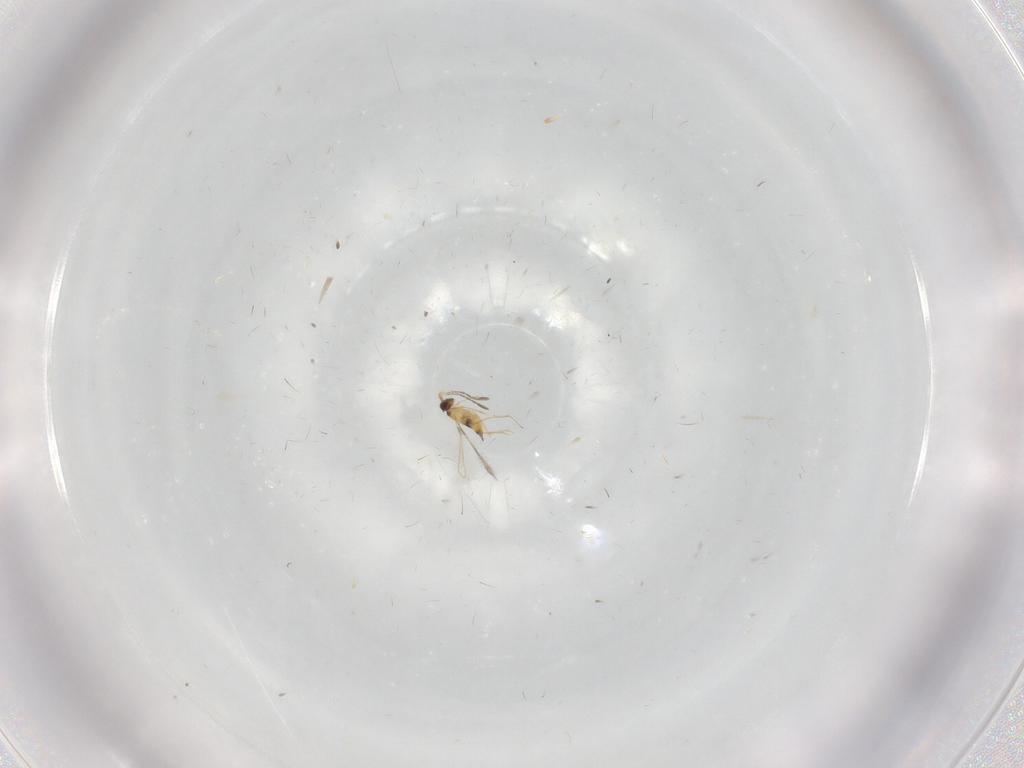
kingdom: Animalia
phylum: Arthropoda
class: Insecta
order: Hymenoptera
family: Mymaridae
